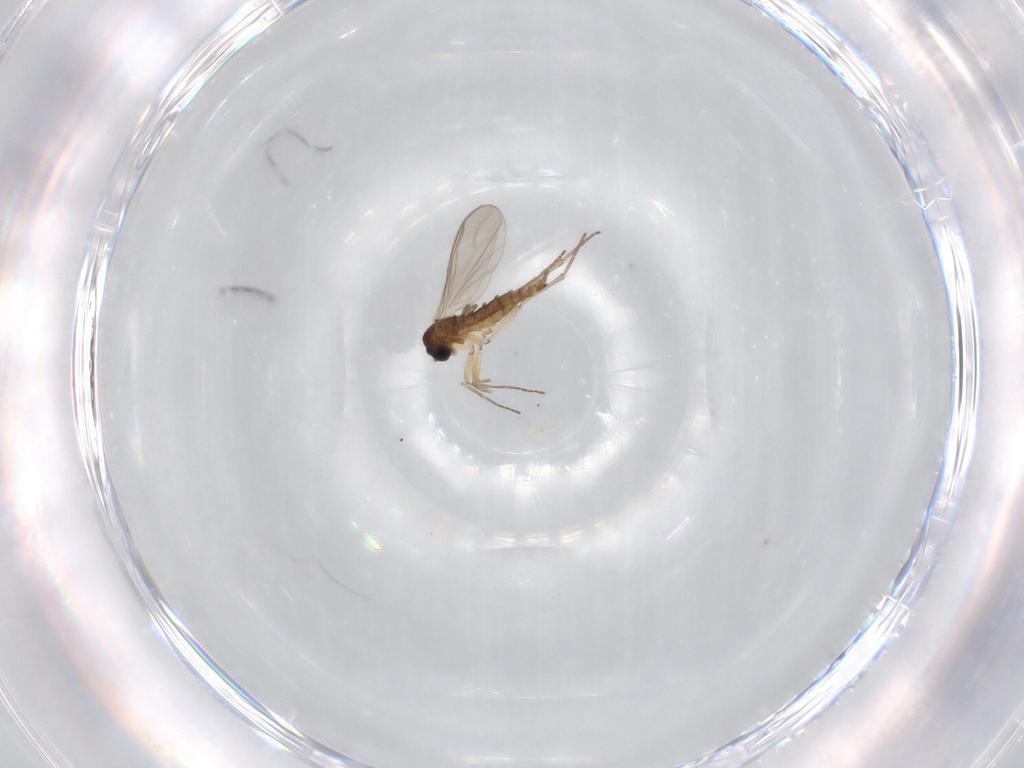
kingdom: Animalia
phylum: Arthropoda
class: Insecta
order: Diptera
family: Sciaridae
